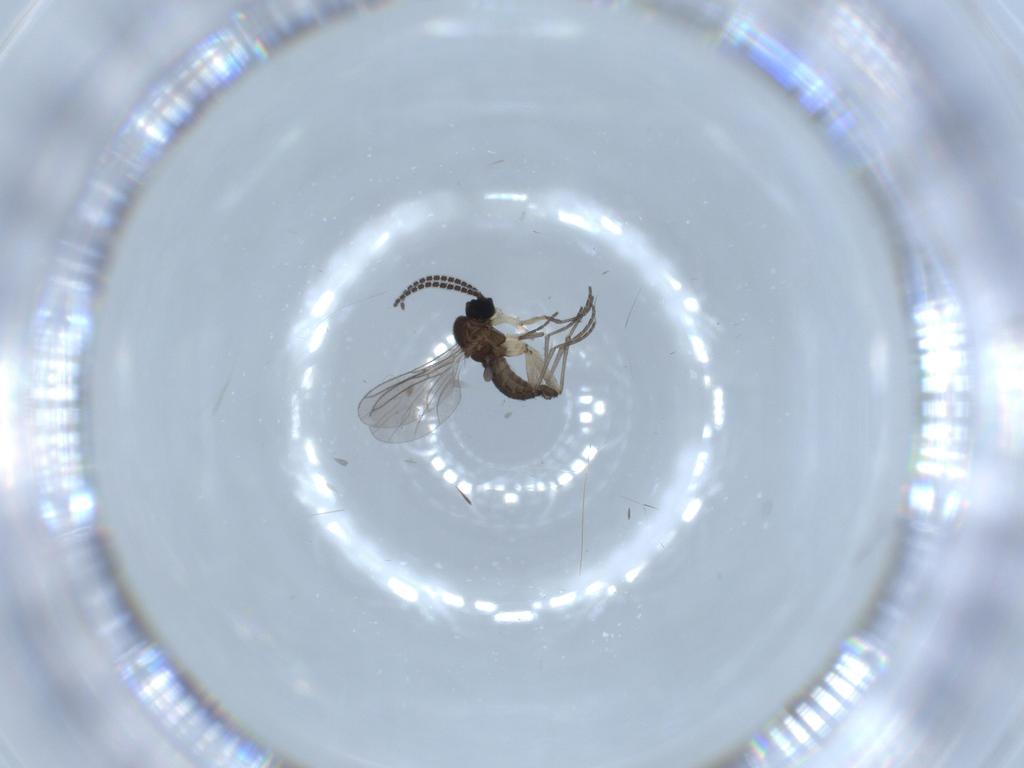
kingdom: Animalia
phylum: Arthropoda
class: Insecta
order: Diptera
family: Sciaridae
